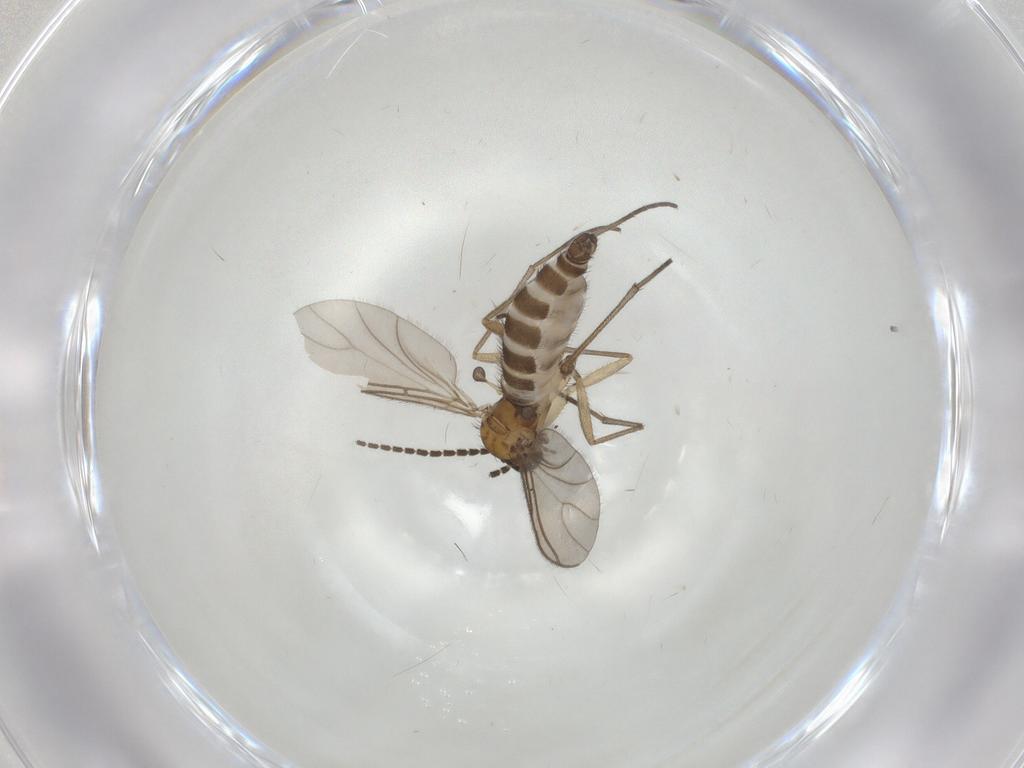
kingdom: Animalia
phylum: Arthropoda
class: Insecta
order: Diptera
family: Sciaridae
